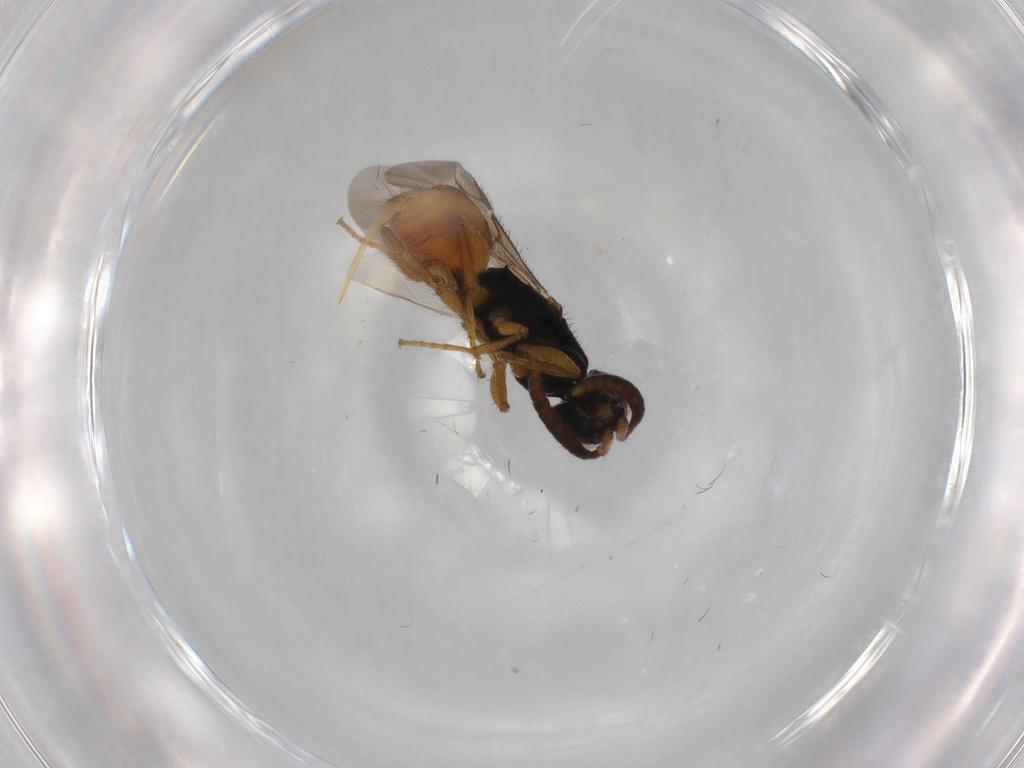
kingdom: Animalia
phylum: Arthropoda
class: Insecta
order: Hymenoptera
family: Chrysididae
